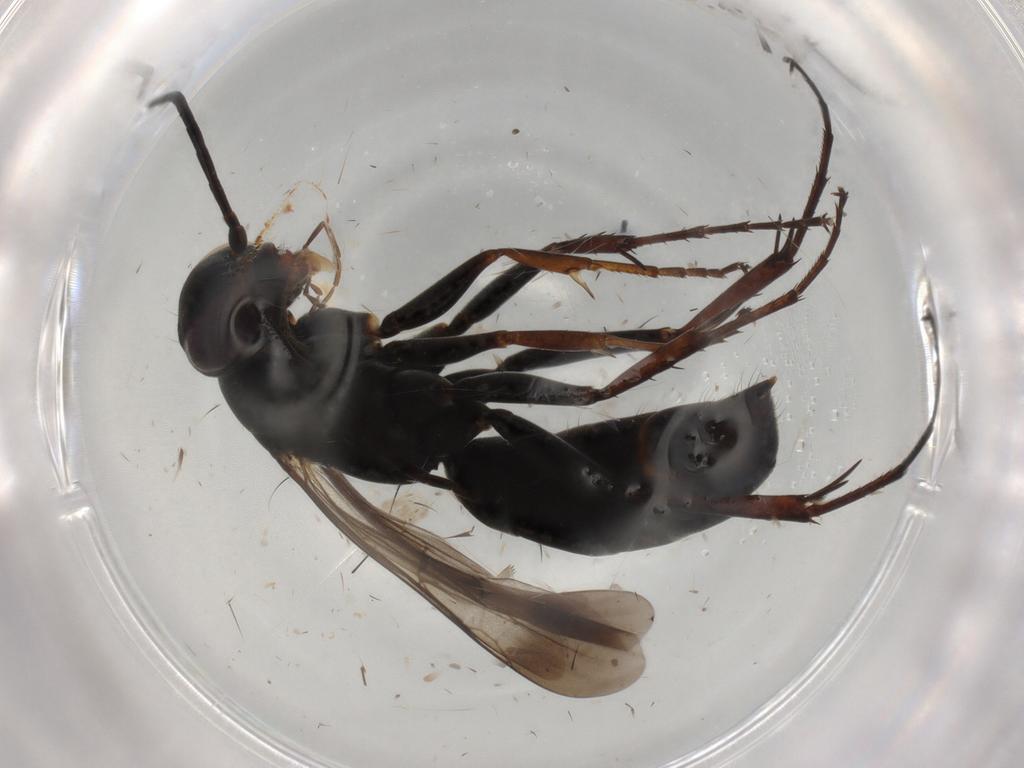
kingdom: Animalia
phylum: Arthropoda
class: Insecta
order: Hymenoptera
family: Pompilidae
